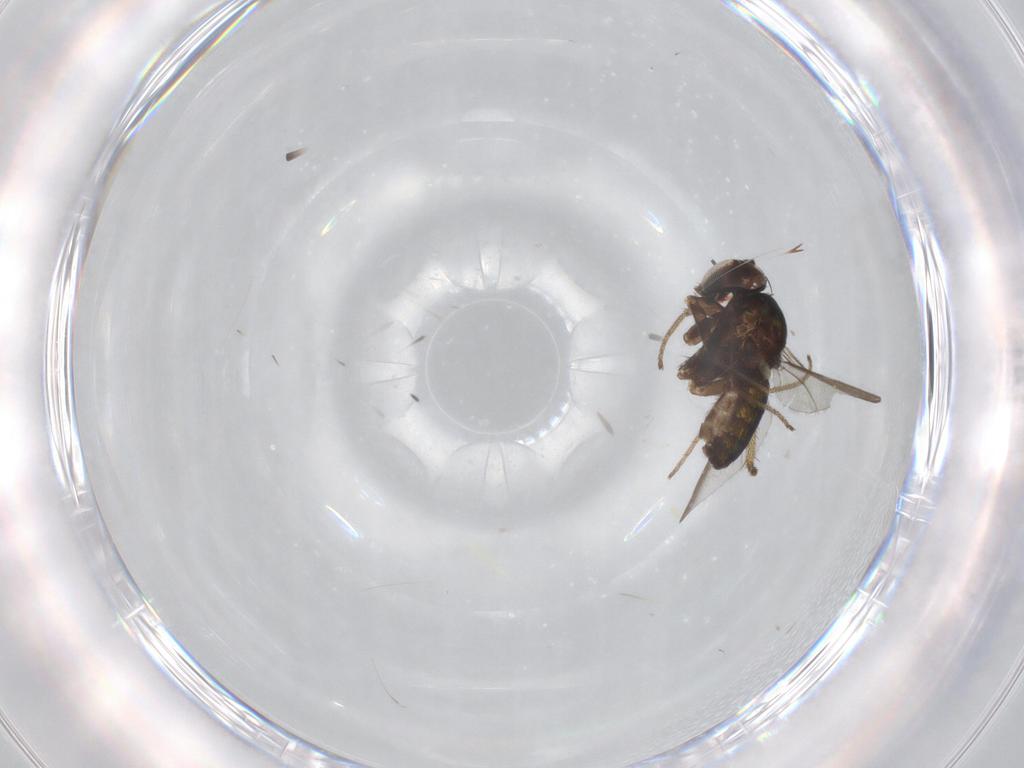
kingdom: Animalia
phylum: Arthropoda
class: Insecta
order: Diptera
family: Cecidomyiidae
